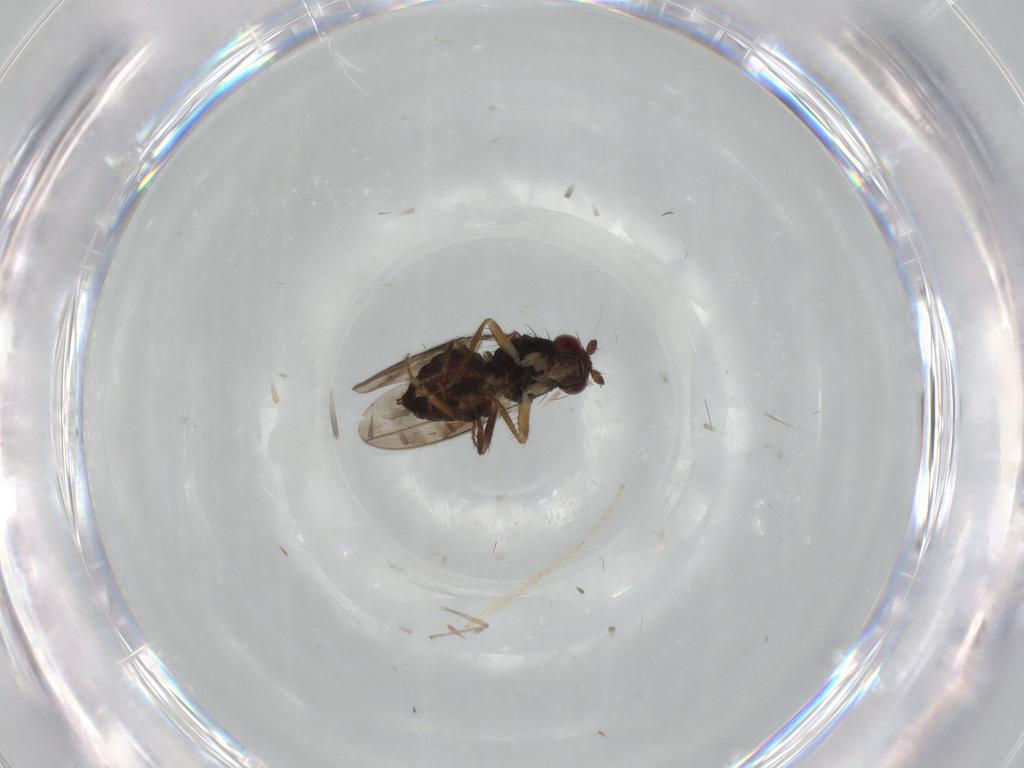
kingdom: Animalia
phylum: Arthropoda
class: Insecta
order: Diptera
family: Sphaeroceridae
